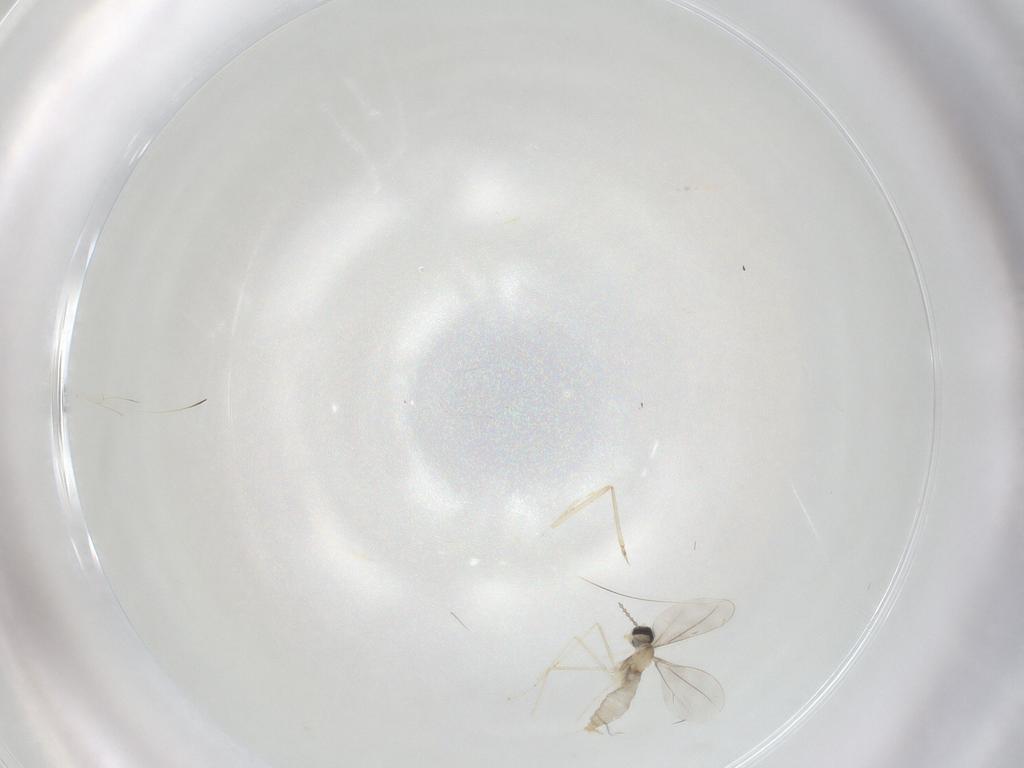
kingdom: Animalia
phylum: Arthropoda
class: Insecta
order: Diptera
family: Cecidomyiidae
